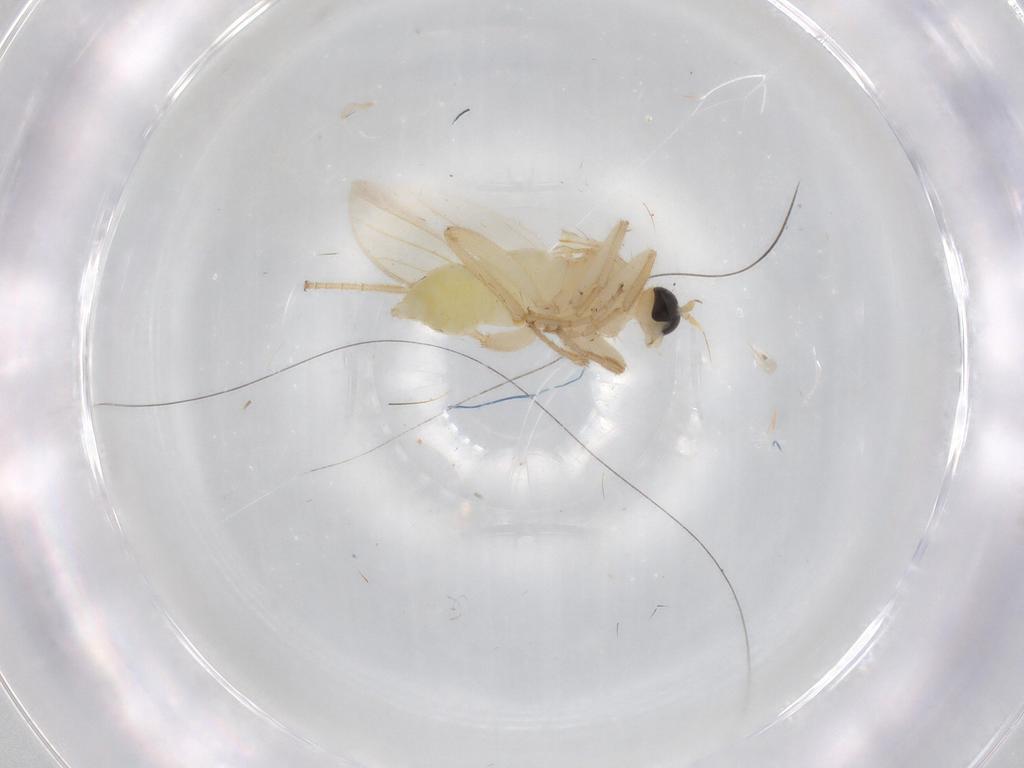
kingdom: Animalia
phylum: Arthropoda
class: Insecta
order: Diptera
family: Hybotidae
